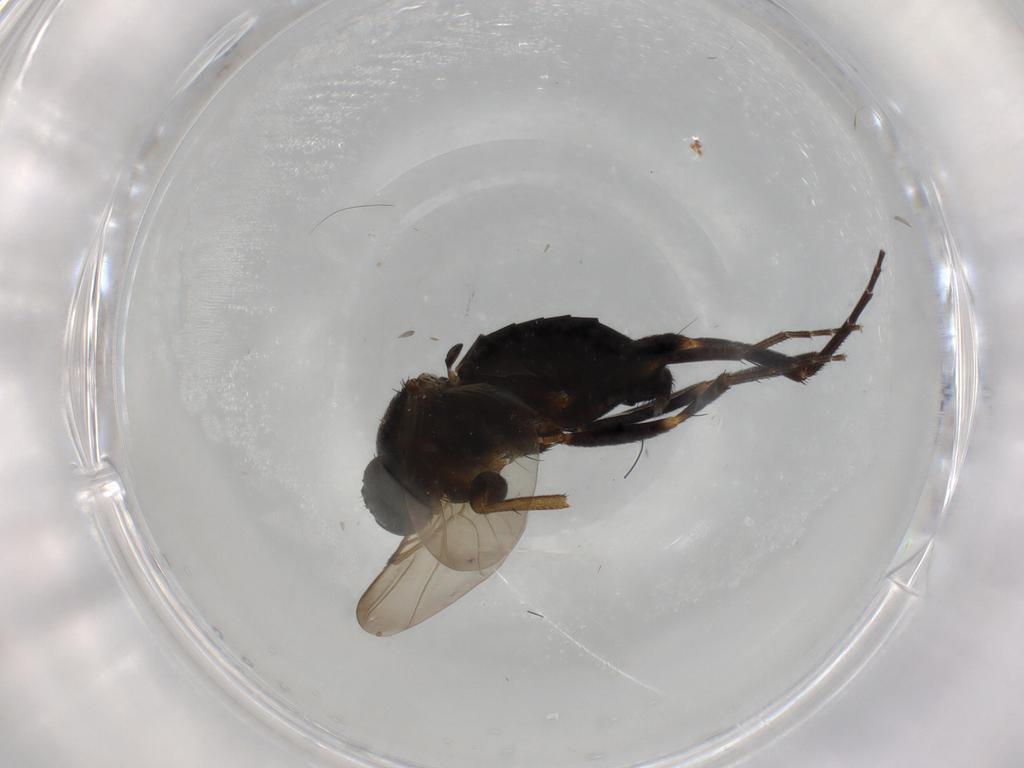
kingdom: Animalia
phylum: Arthropoda
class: Insecta
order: Diptera
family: Phoridae
